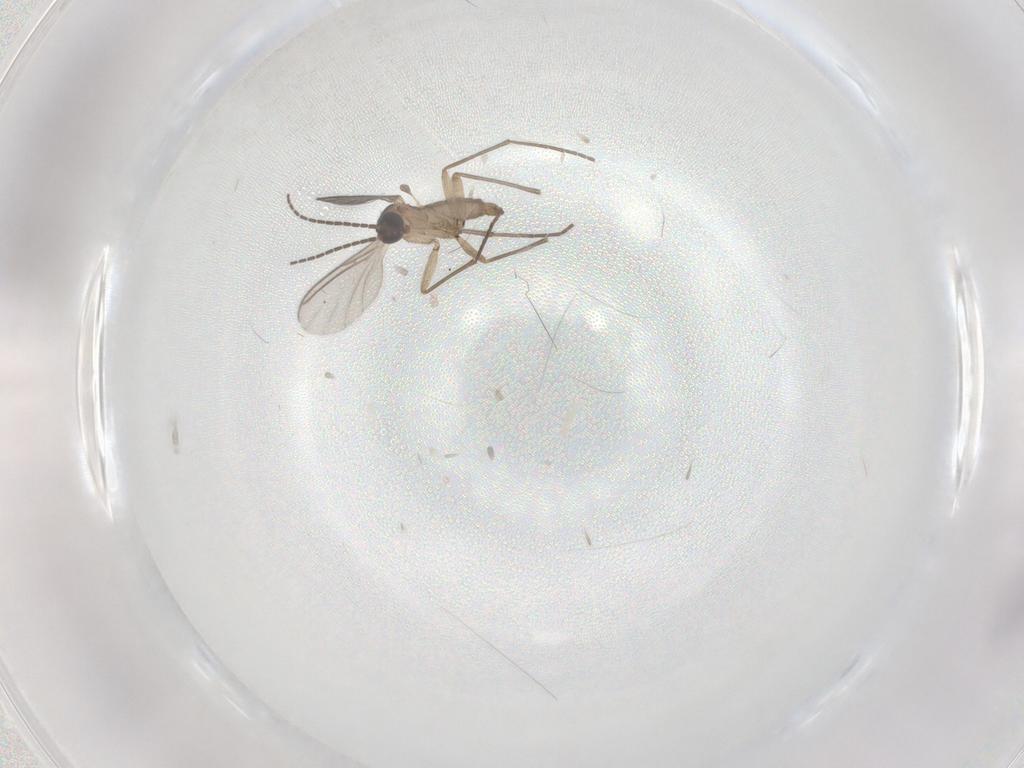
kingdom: Animalia
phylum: Arthropoda
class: Insecta
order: Diptera
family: Sciaridae
